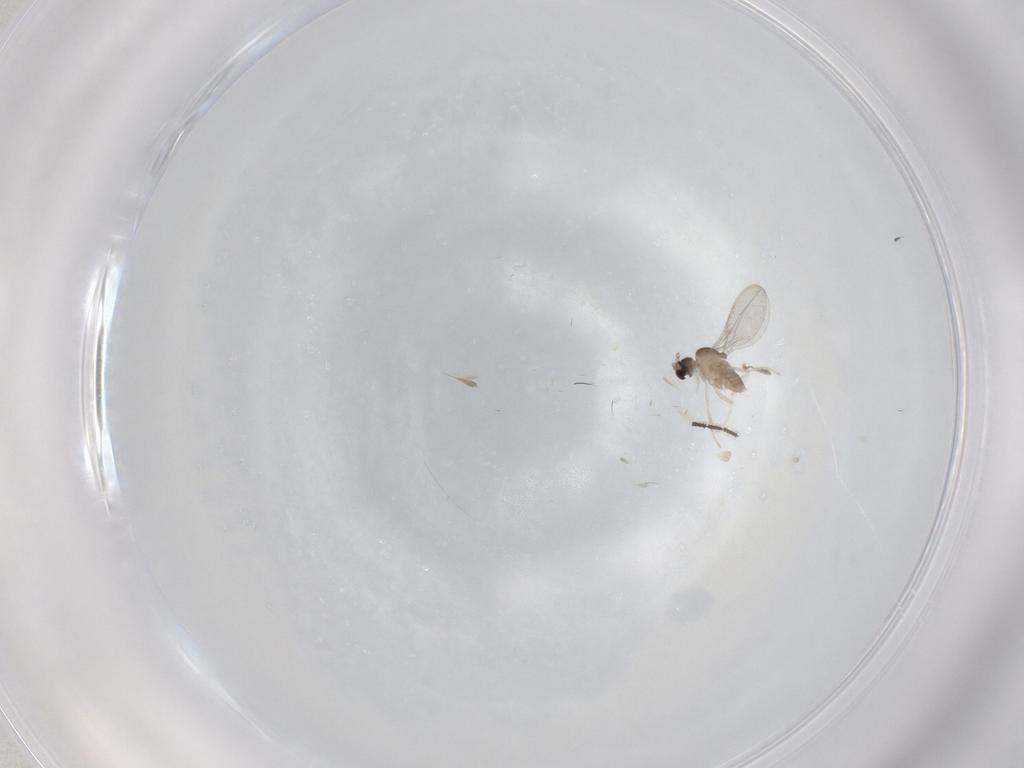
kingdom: Animalia
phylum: Arthropoda
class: Insecta
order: Diptera
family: Cecidomyiidae
